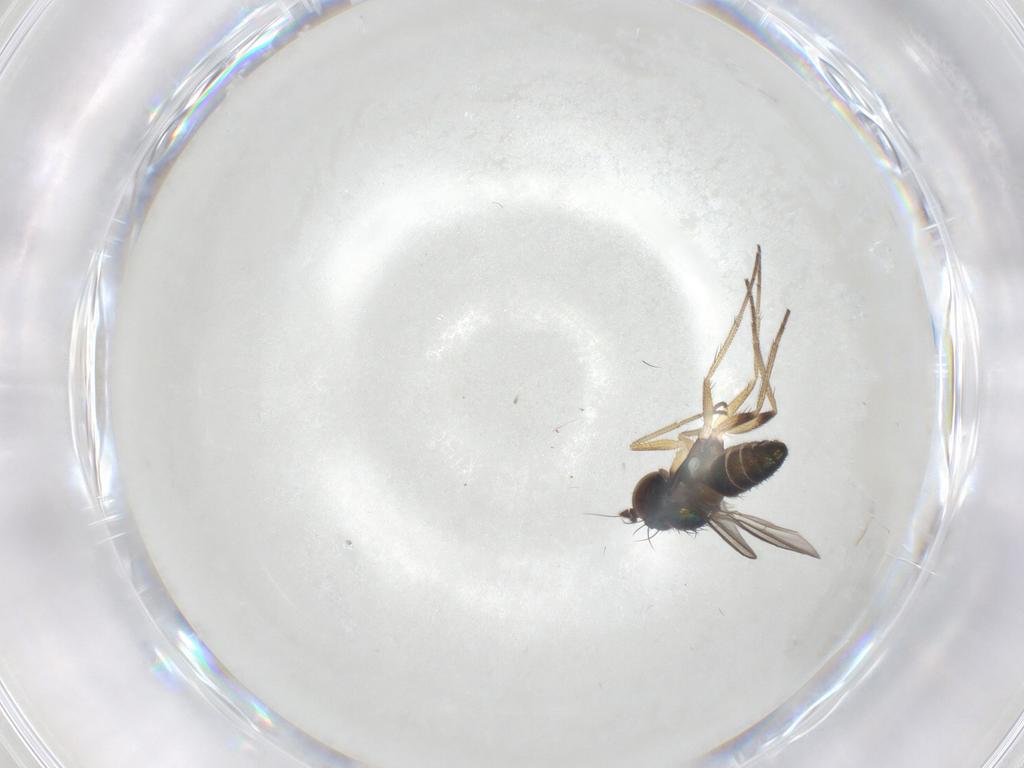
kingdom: Animalia
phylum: Arthropoda
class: Insecta
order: Diptera
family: Dolichopodidae
